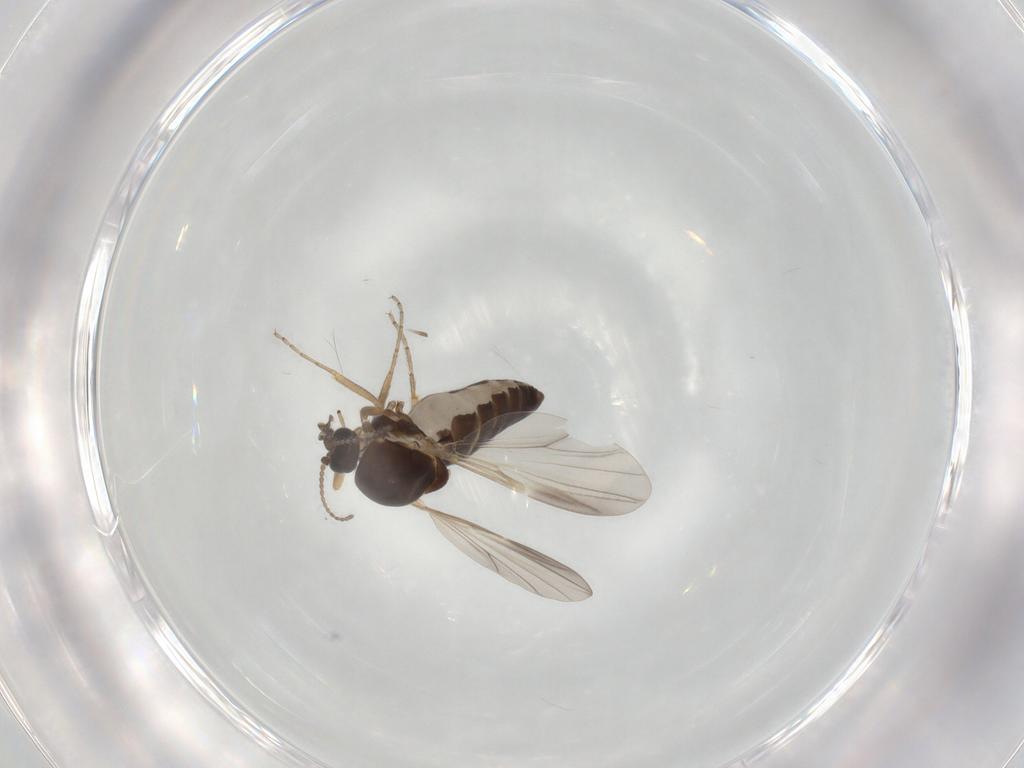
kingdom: Animalia
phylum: Arthropoda
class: Insecta
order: Diptera
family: Ceratopogonidae
